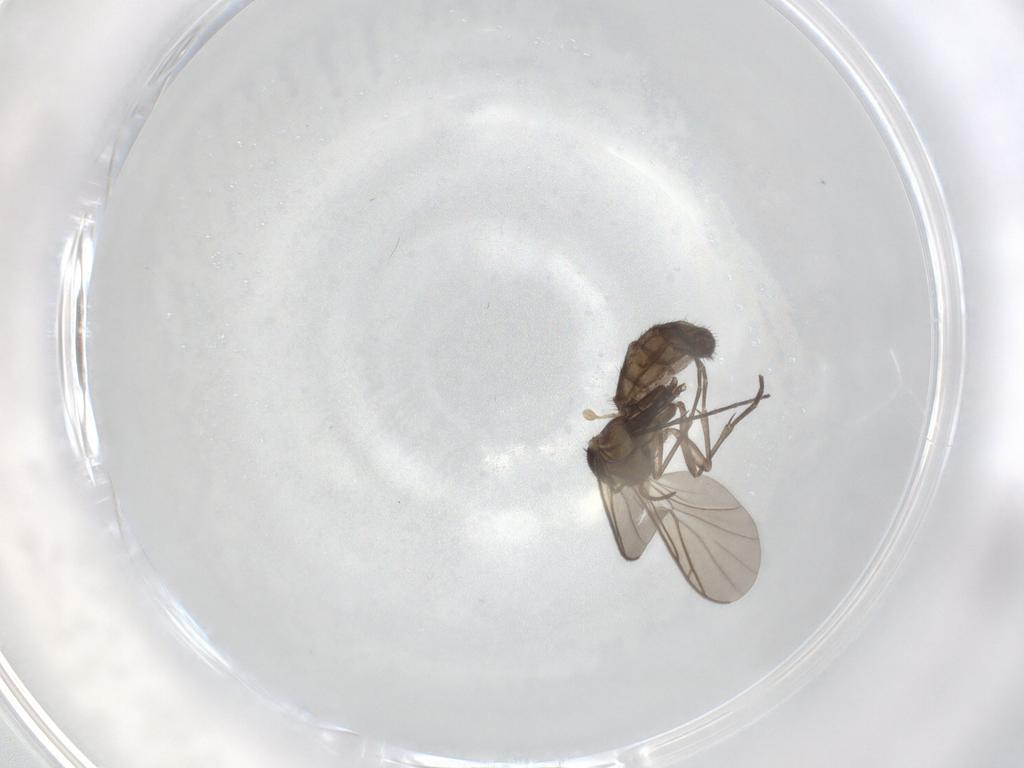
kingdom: Animalia
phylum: Arthropoda
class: Insecta
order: Diptera
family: Keroplatidae
